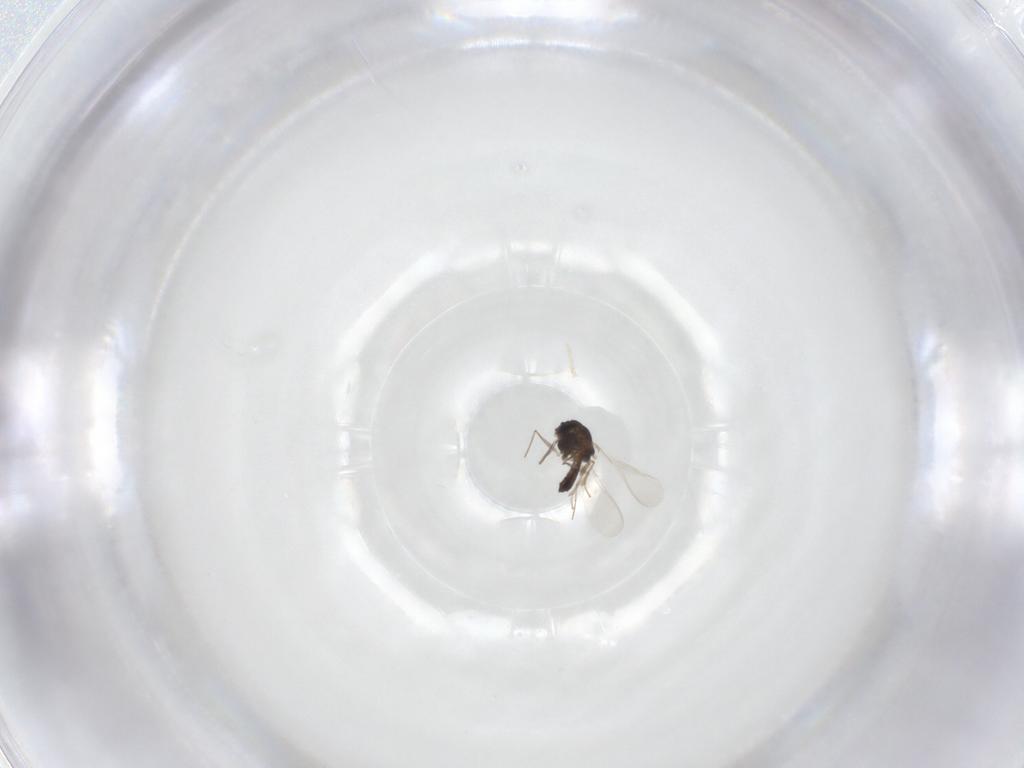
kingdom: Animalia
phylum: Arthropoda
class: Insecta
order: Diptera
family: Chironomidae
